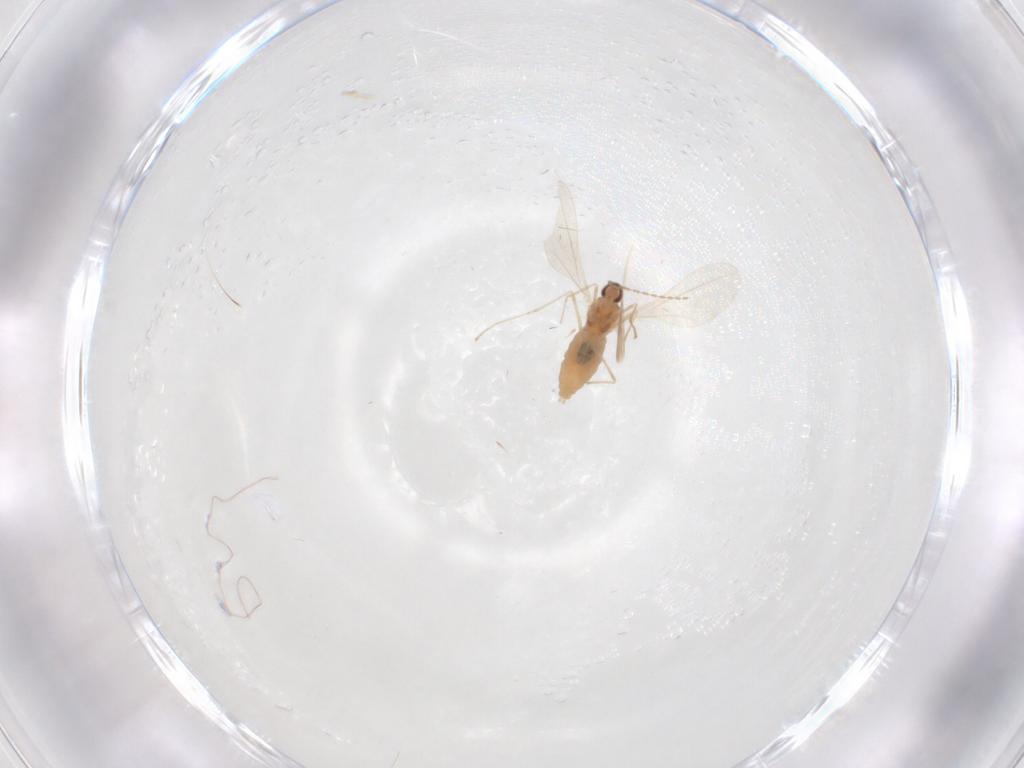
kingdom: Animalia
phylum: Arthropoda
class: Insecta
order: Diptera
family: Cecidomyiidae
